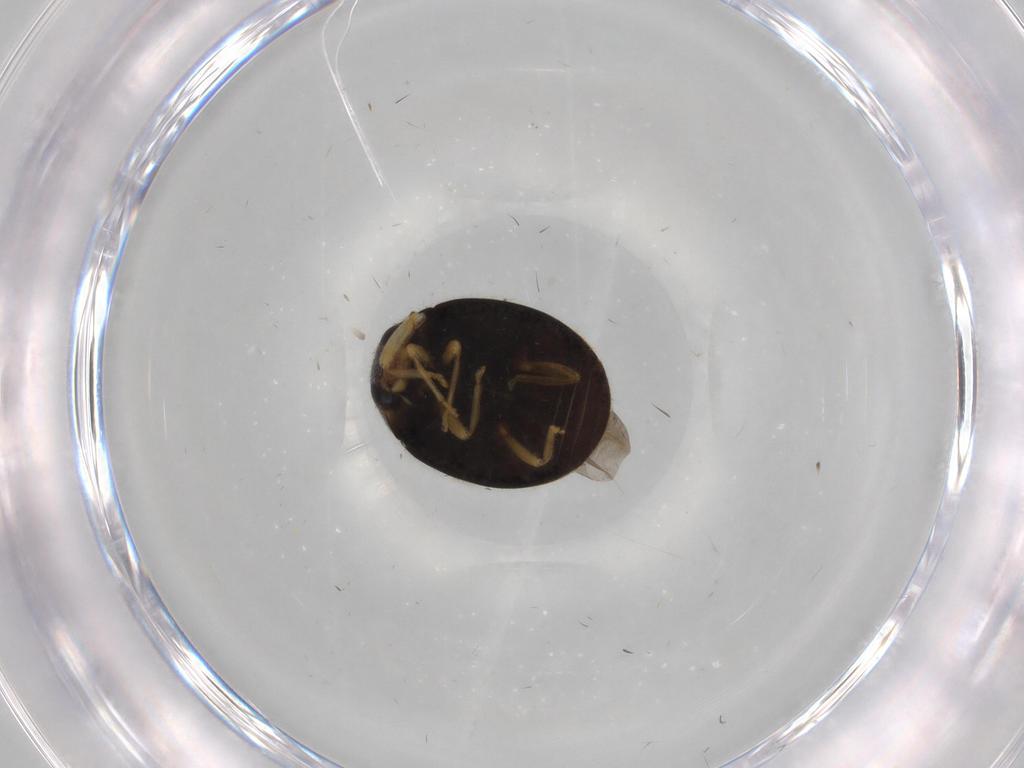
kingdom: Animalia
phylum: Arthropoda
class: Insecta
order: Coleoptera
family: Coccinellidae
